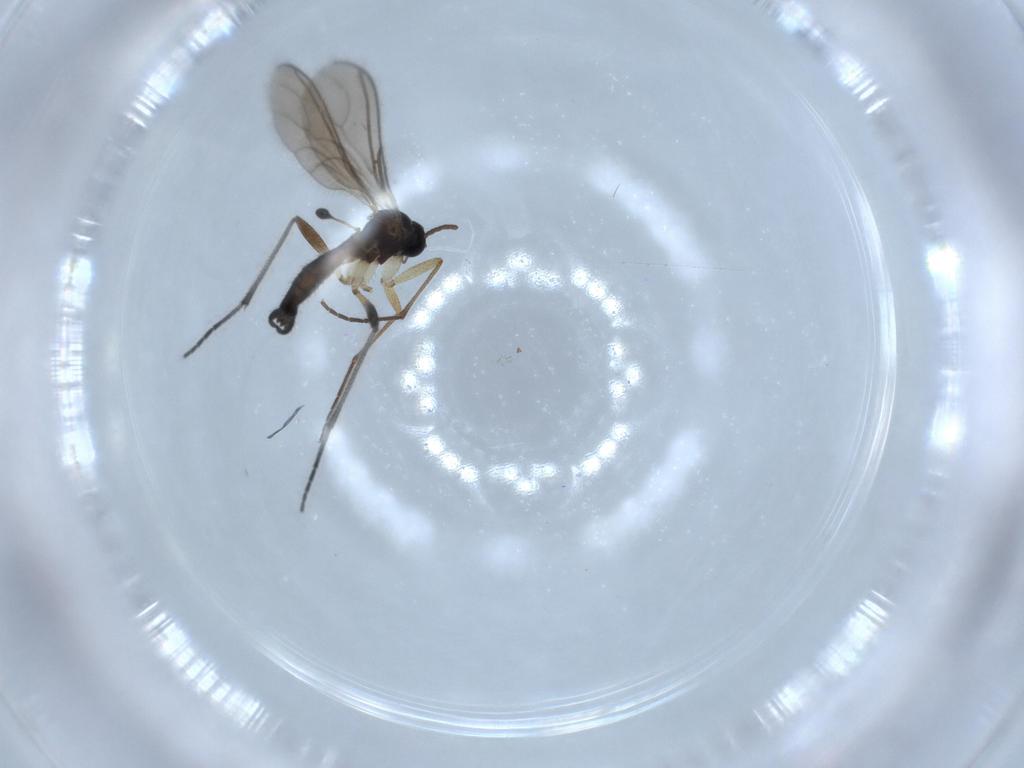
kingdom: Animalia
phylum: Arthropoda
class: Insecta
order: Diptera
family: Sciaridae
